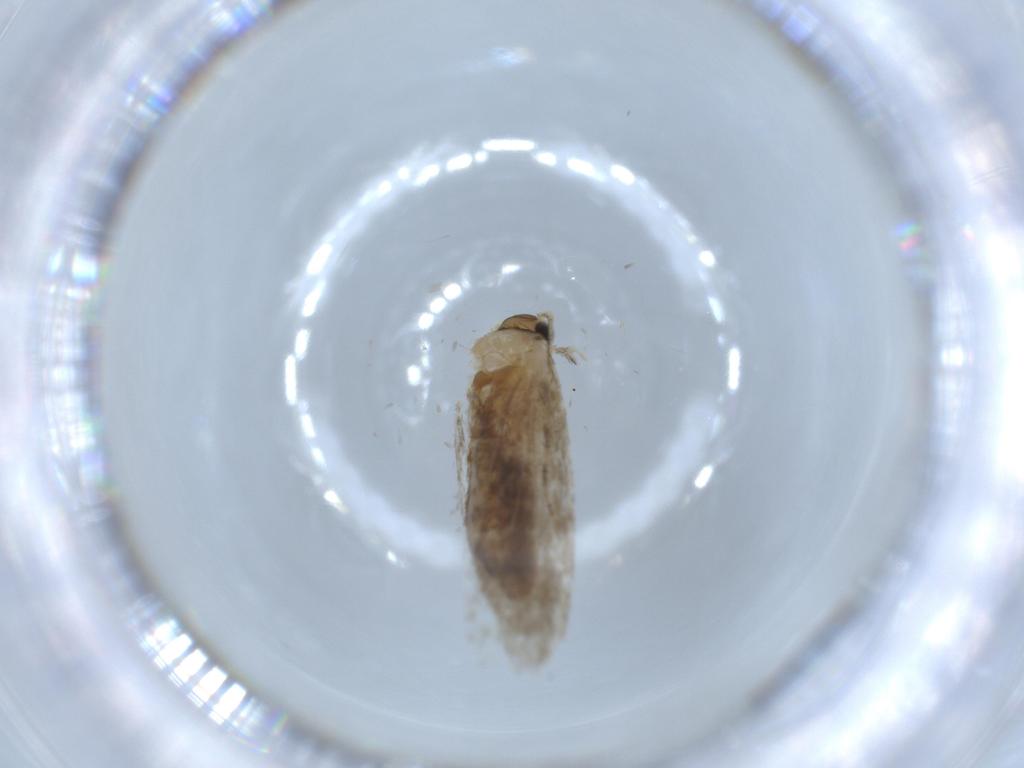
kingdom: Animalia
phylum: Arthropoda
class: Insecta
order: Lepidoptera
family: Tineidae
